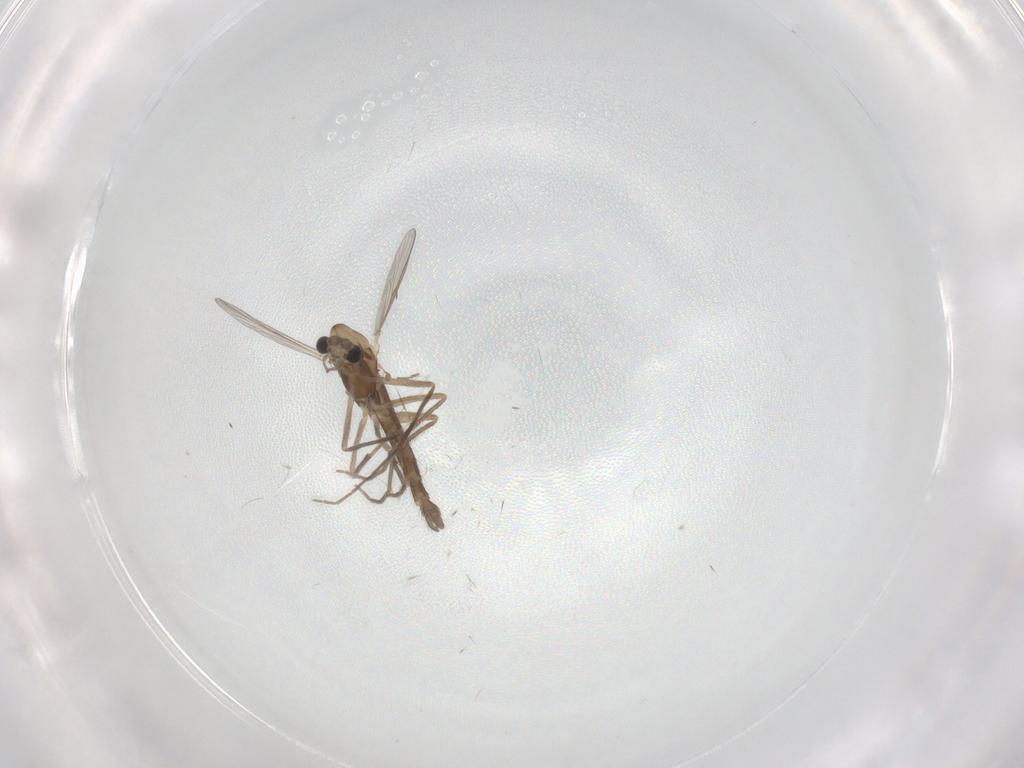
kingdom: Animalia
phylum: Arthropoda
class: Insecta
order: Diptera
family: Chironomidae
